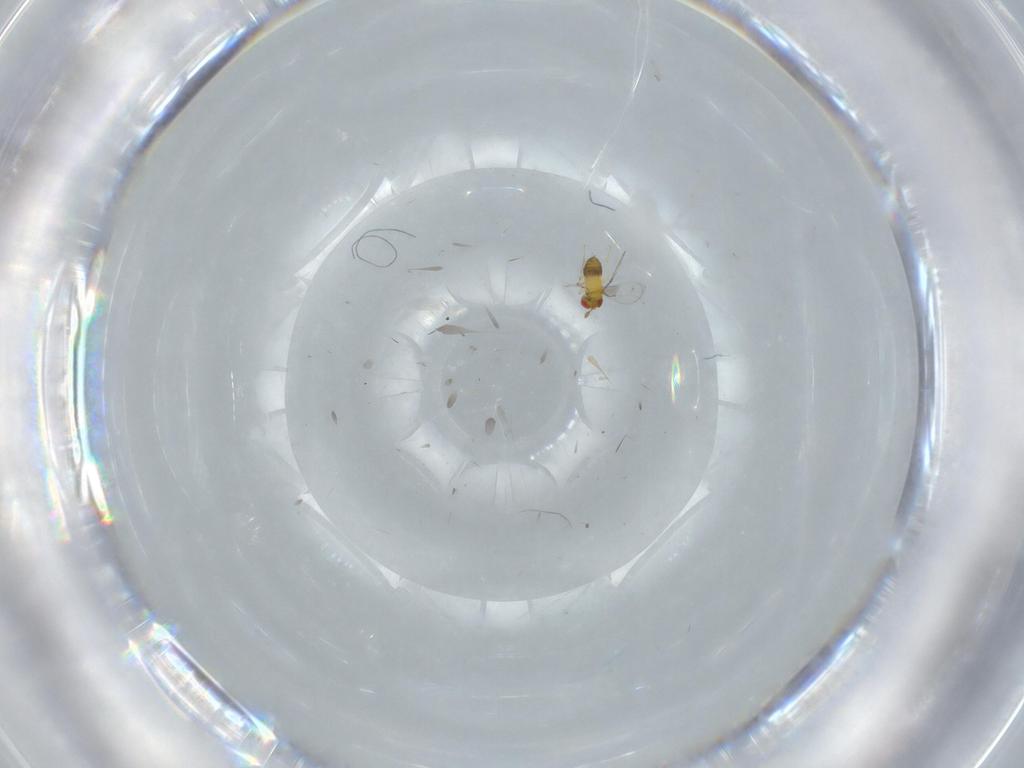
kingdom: Animalia
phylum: Arthropoda
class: Insecta
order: Hymenoptera
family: Trichogrammatidae
